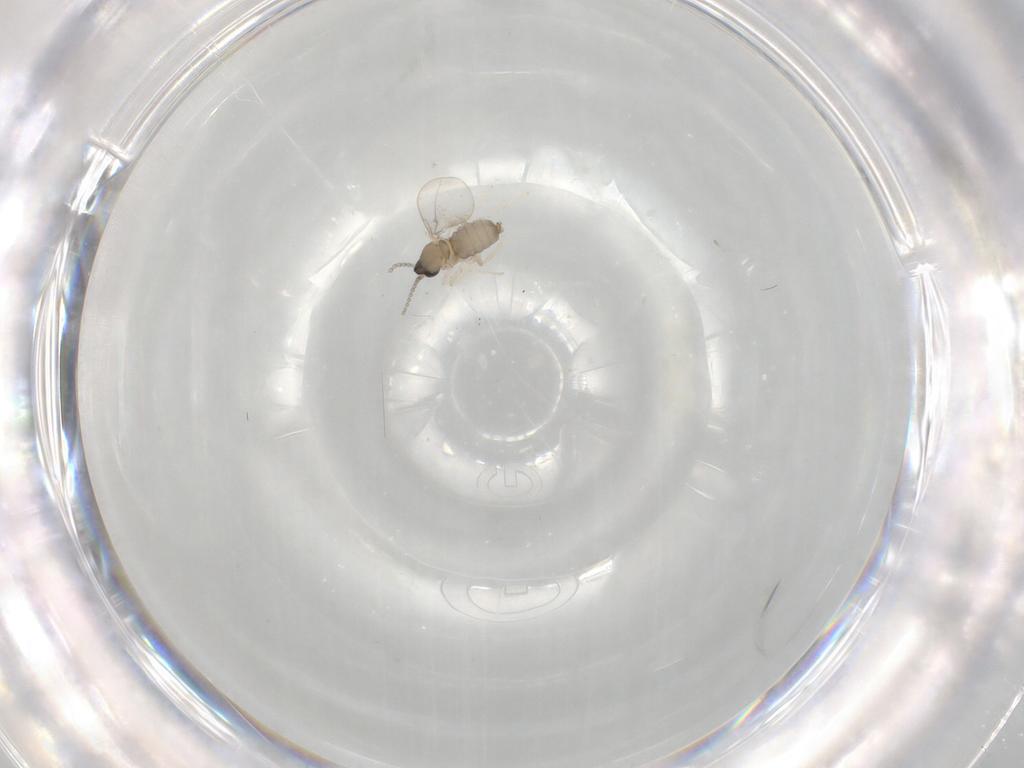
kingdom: Animalia
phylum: Arthropoda
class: Insecta
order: Diptera
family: Cecidomyiidae
